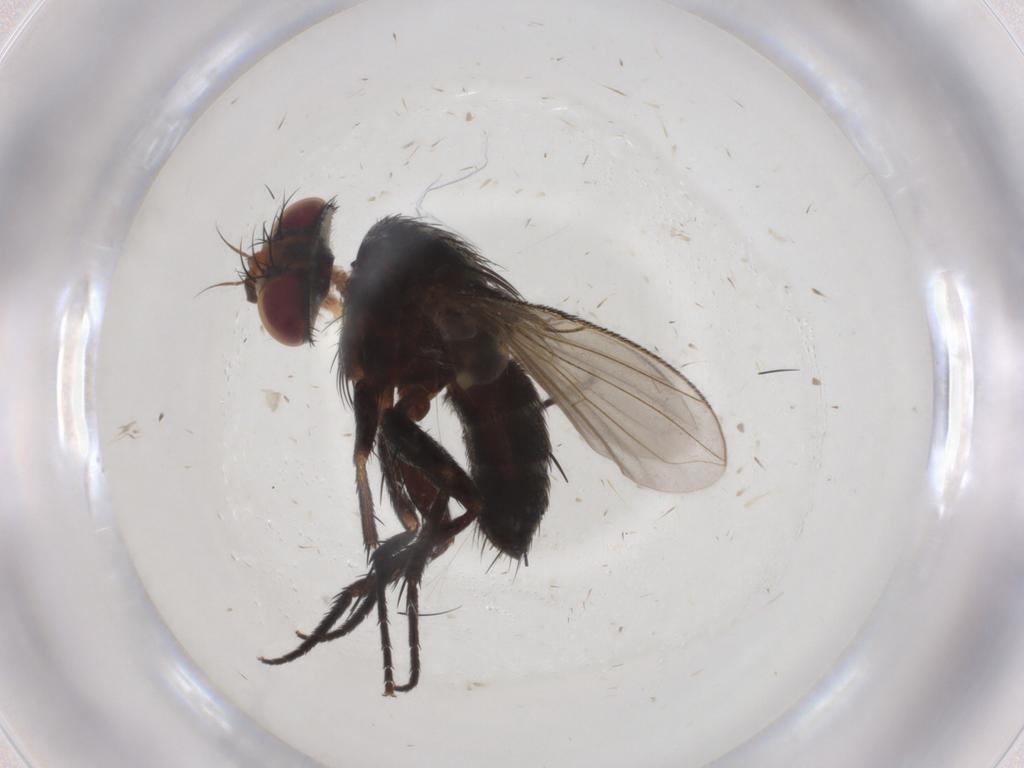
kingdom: Animalia
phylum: Arthropoda
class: Insecta
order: Diptera
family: Tachinidae
